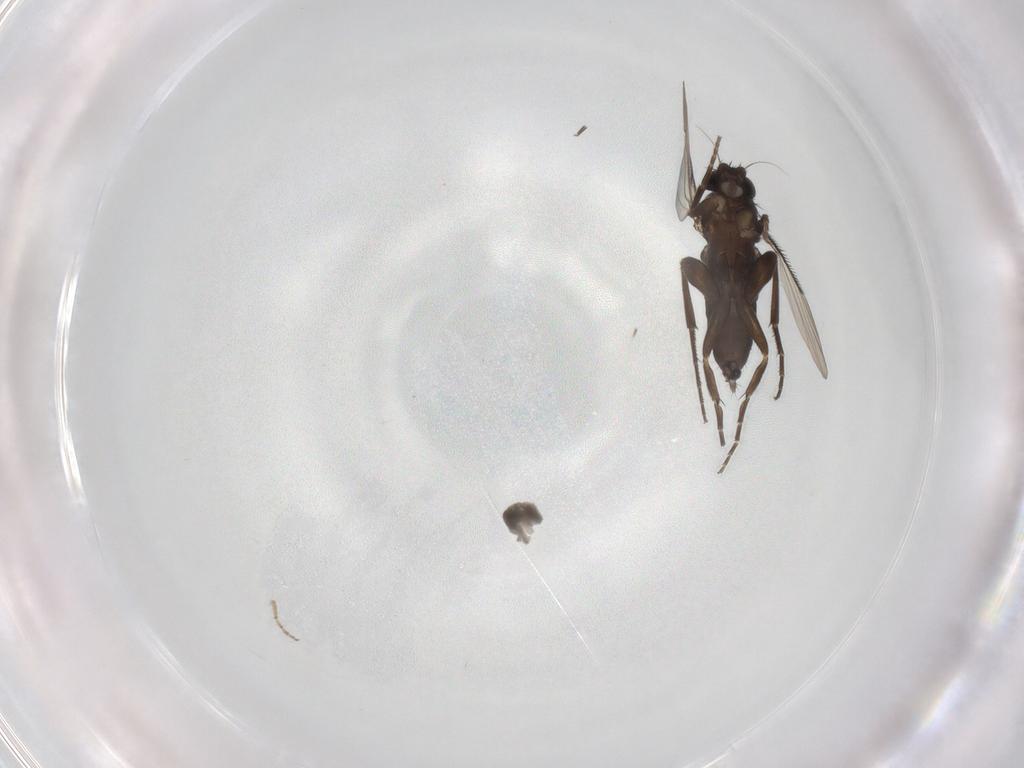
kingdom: Animalia
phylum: Arthropoda
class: Insecta
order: Diptera
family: Phoridae
